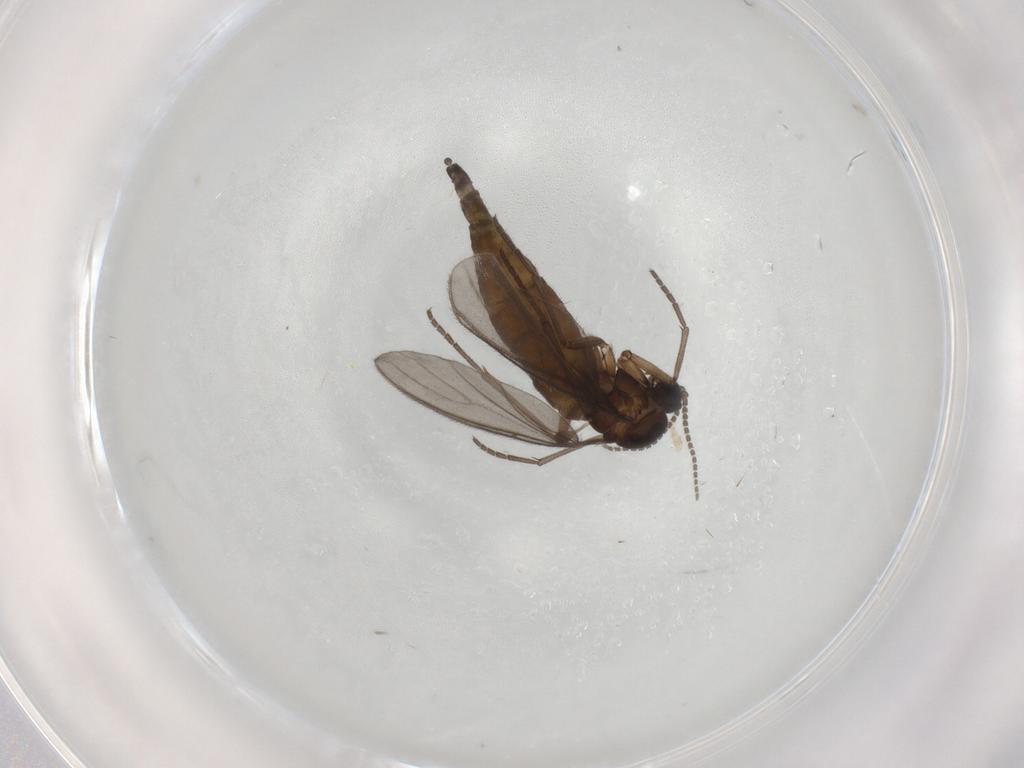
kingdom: Animalia
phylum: Arthropoda
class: Insecta
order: Diptera
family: Sciaridae
